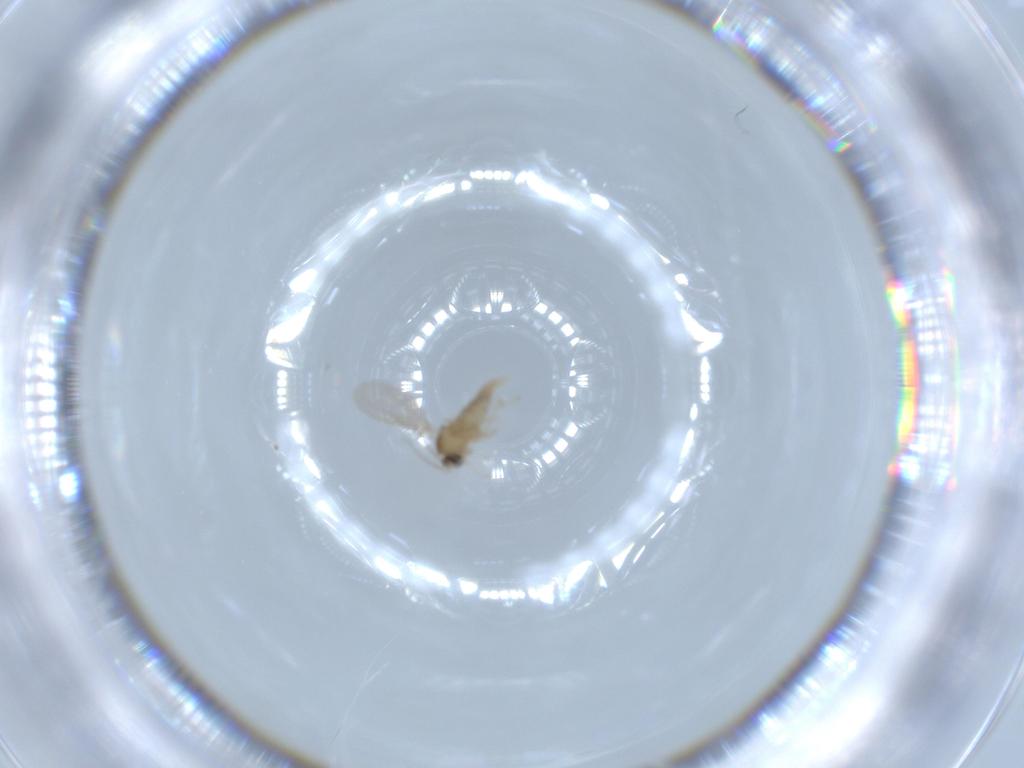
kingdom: Animalia
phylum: Arthropoda
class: Insecta
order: Diptera
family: Cecidomyiidae
